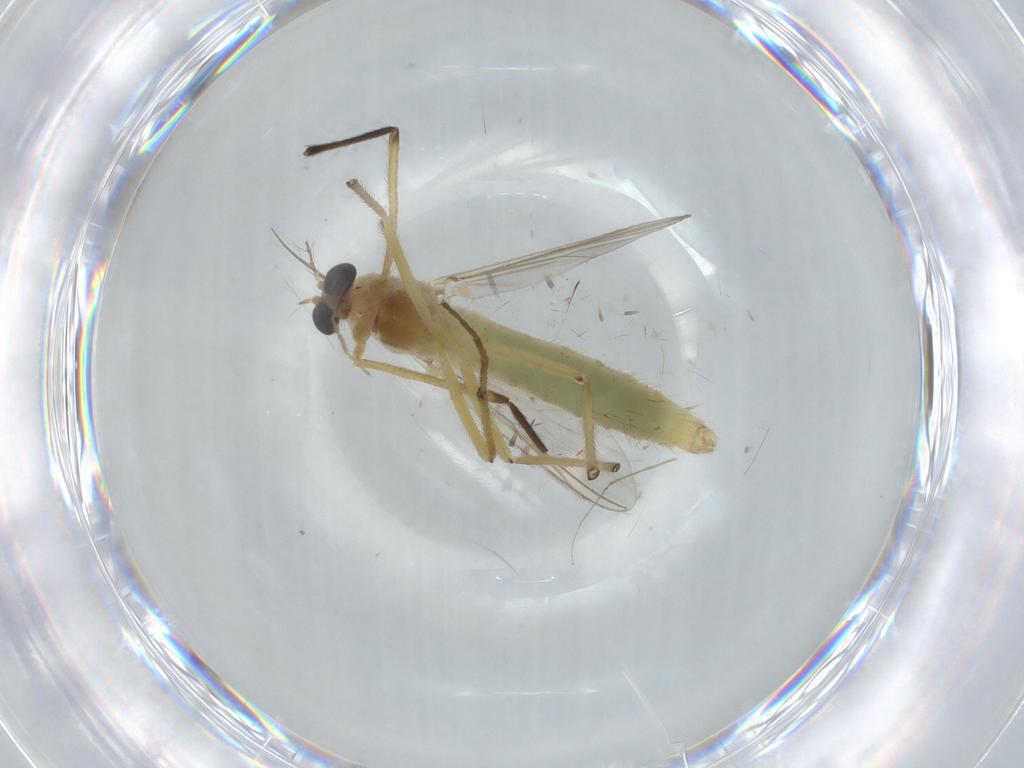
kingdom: Animalia
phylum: Arthropoda
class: Insecta
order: Diptera
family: Chironomidae
